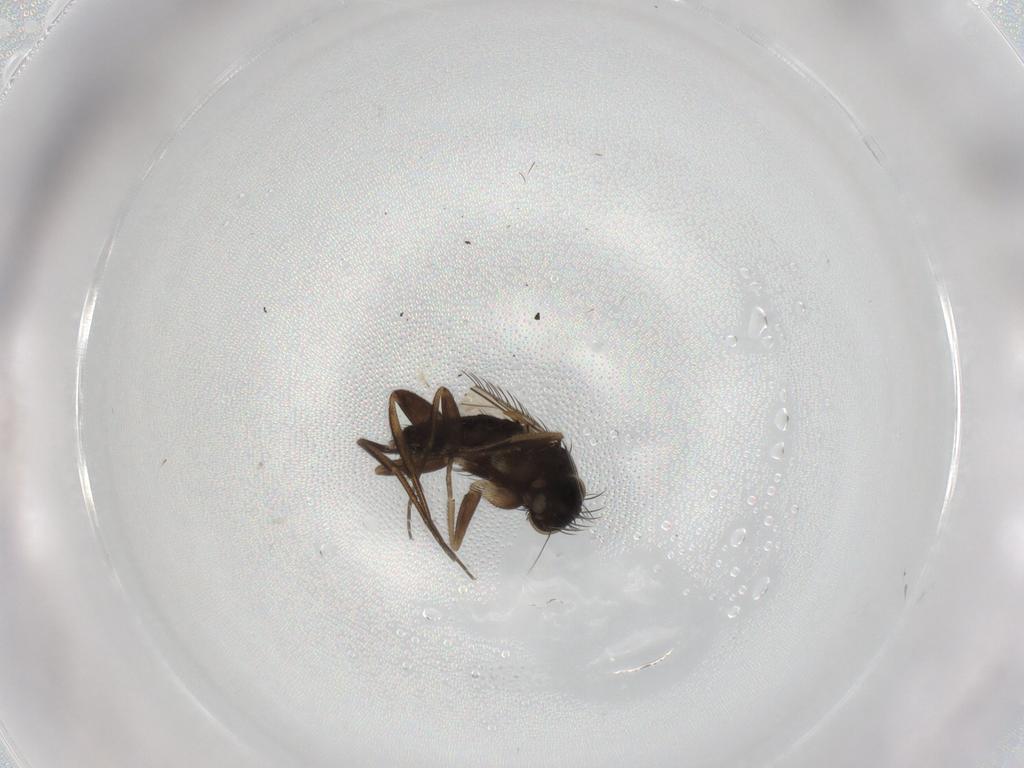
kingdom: Animalia
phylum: Arthropoda
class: Insecta
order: Diptera
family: Phoridae
